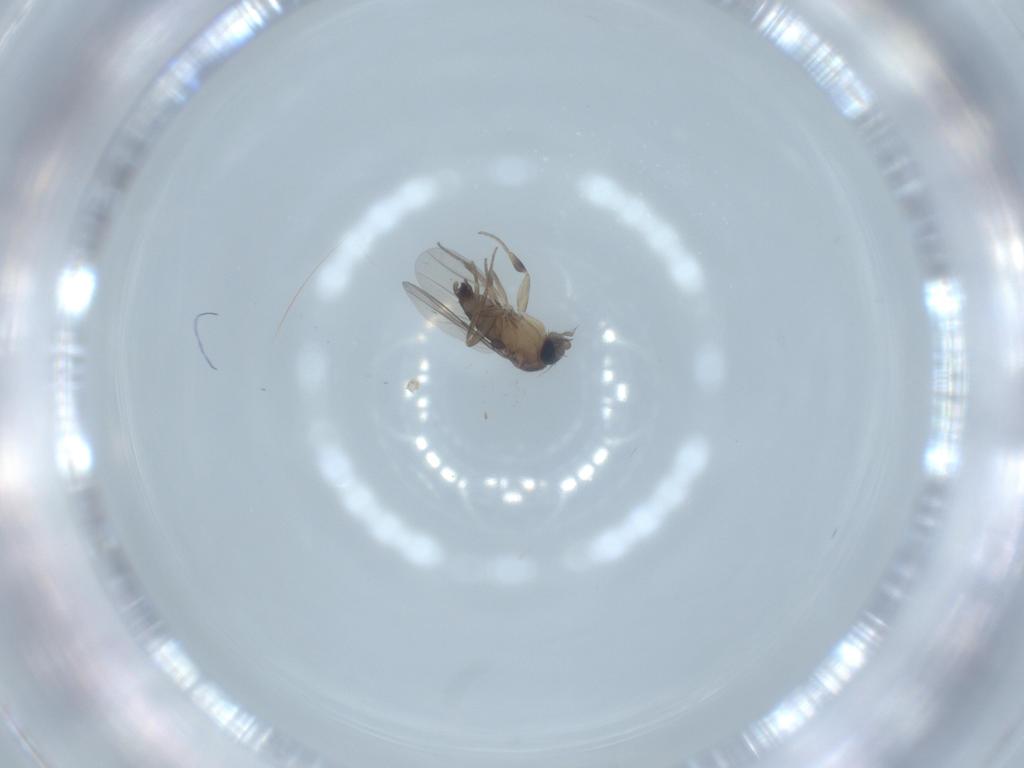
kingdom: Animalia
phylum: Arthropoda
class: Insecta
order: Diptera
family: Phoridae
